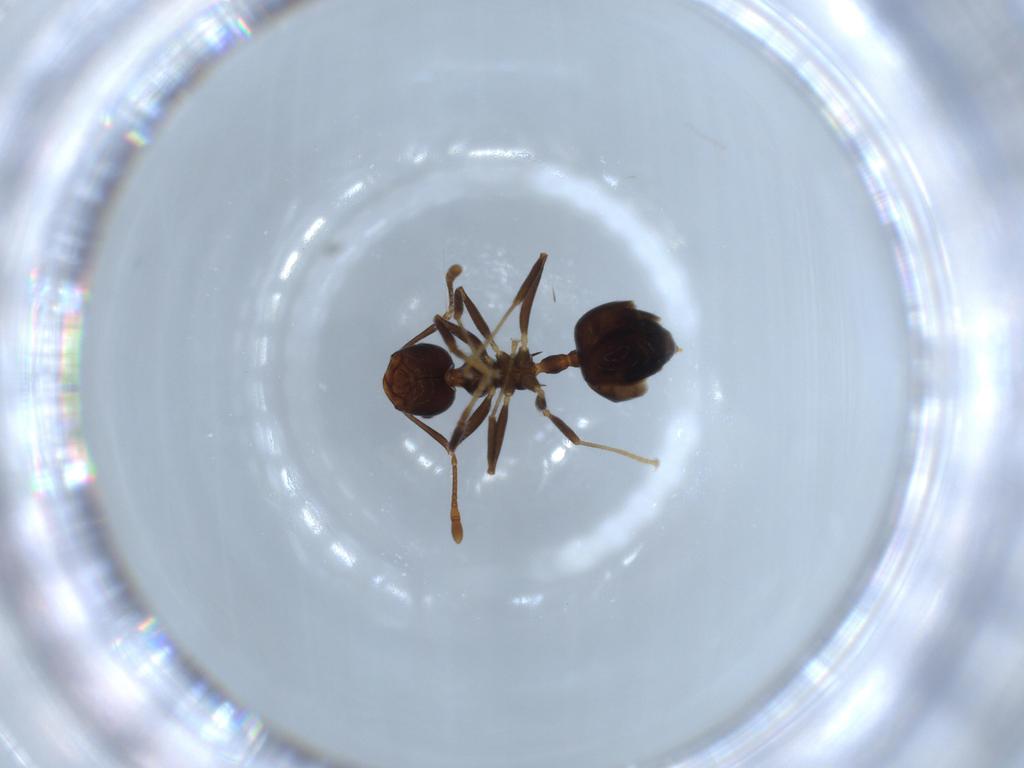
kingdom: Animalia
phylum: Arthropoda
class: Insecta
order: Hymenoptera
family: Formicidae
